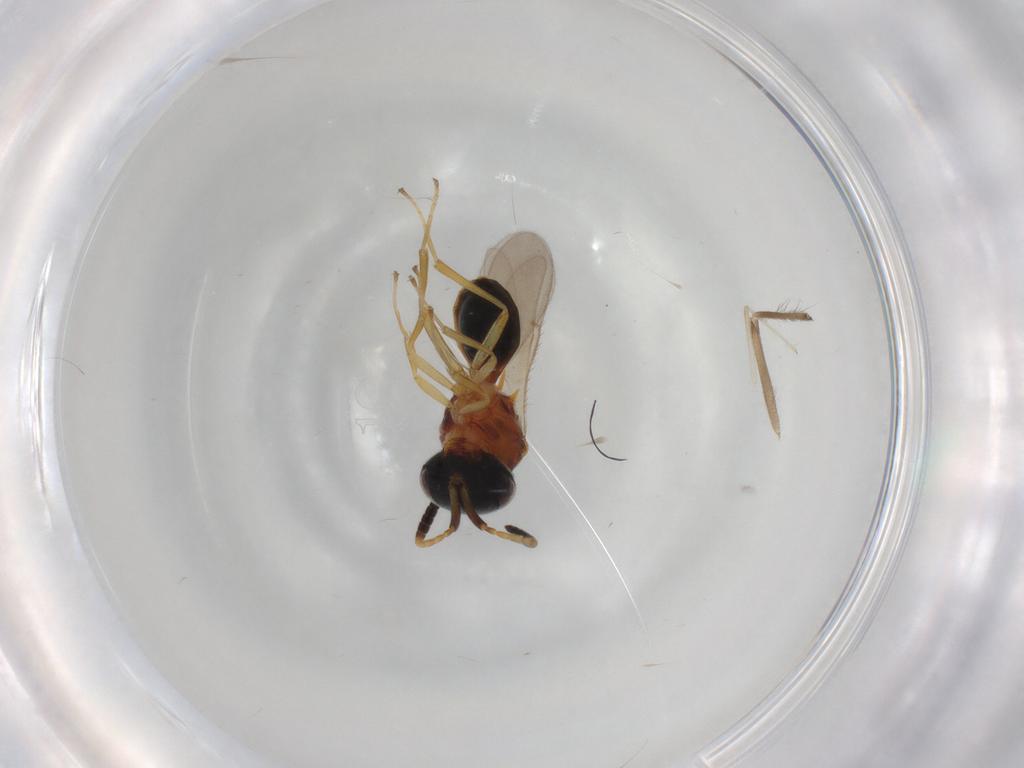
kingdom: Animalia
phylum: Arthropoda
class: Insecta
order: Hymenoptera
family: Scelionidae
